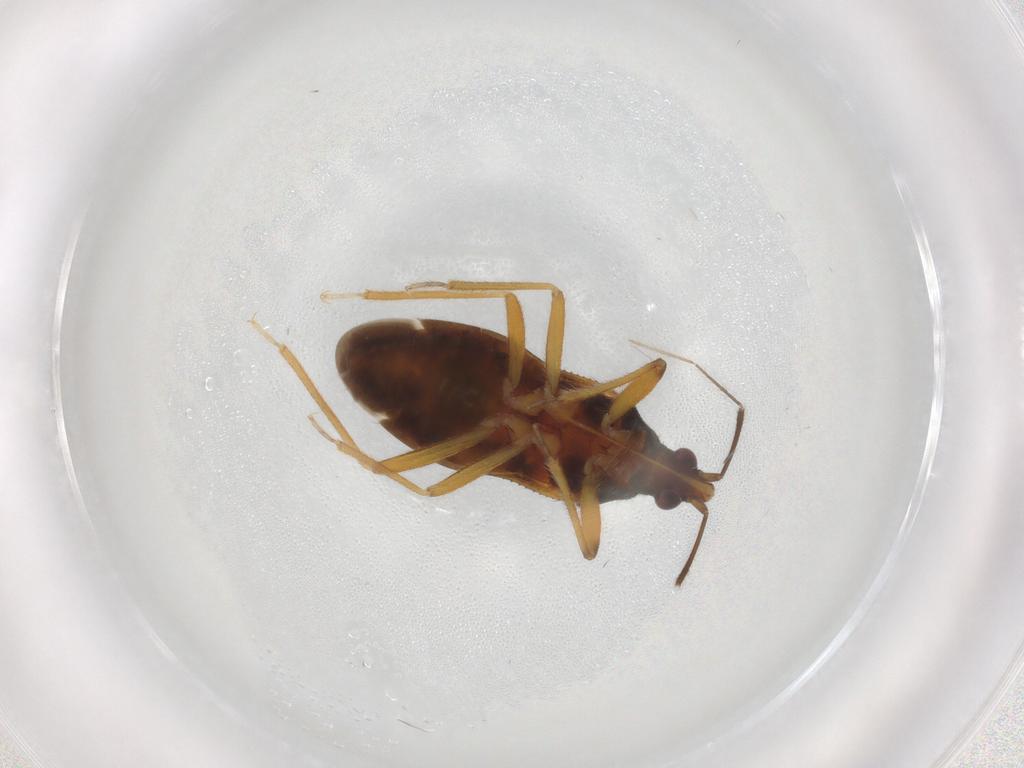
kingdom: Animalia
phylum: Arthropoda
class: Insecta
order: Hemiptera
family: Anthocoridae
